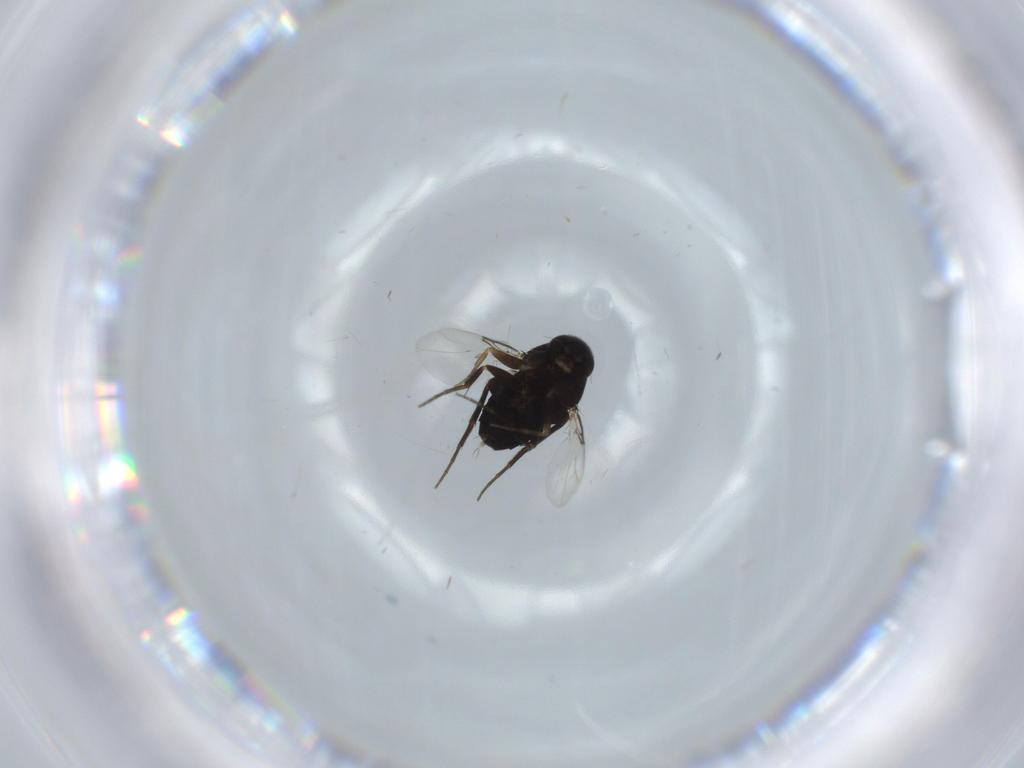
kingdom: Animalia
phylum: Arthropoda
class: Insecta
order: Diptera
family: Phoridae
